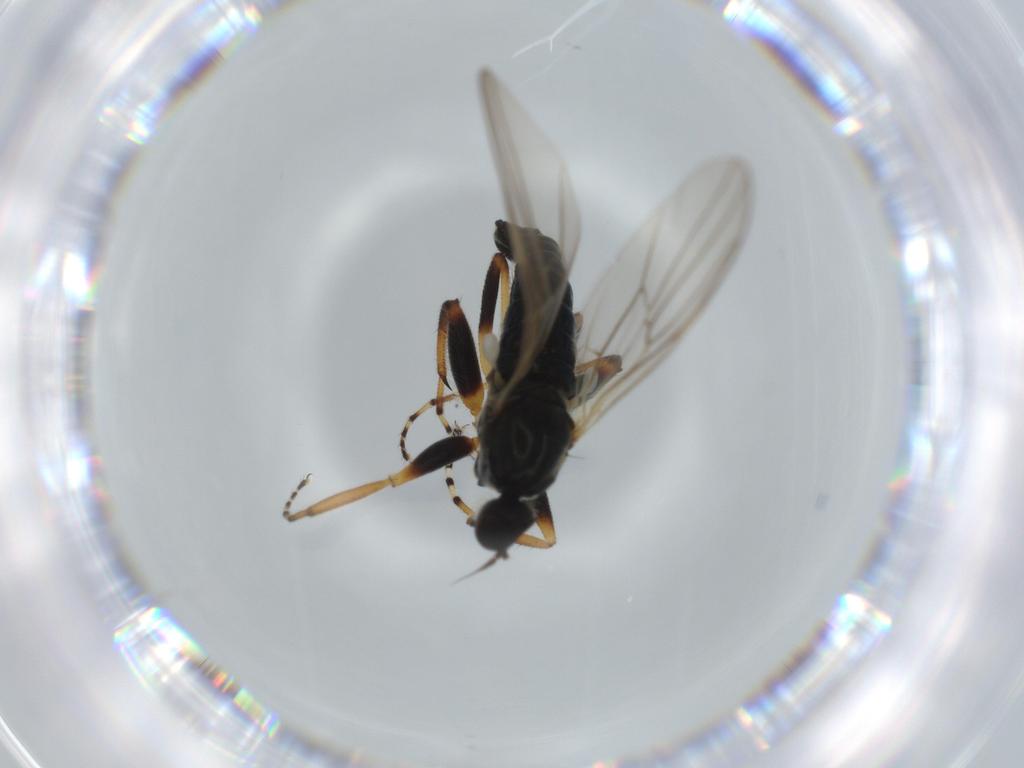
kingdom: Animalia
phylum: Arthropoda
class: Insecta
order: Diptera
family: Hybotidae
